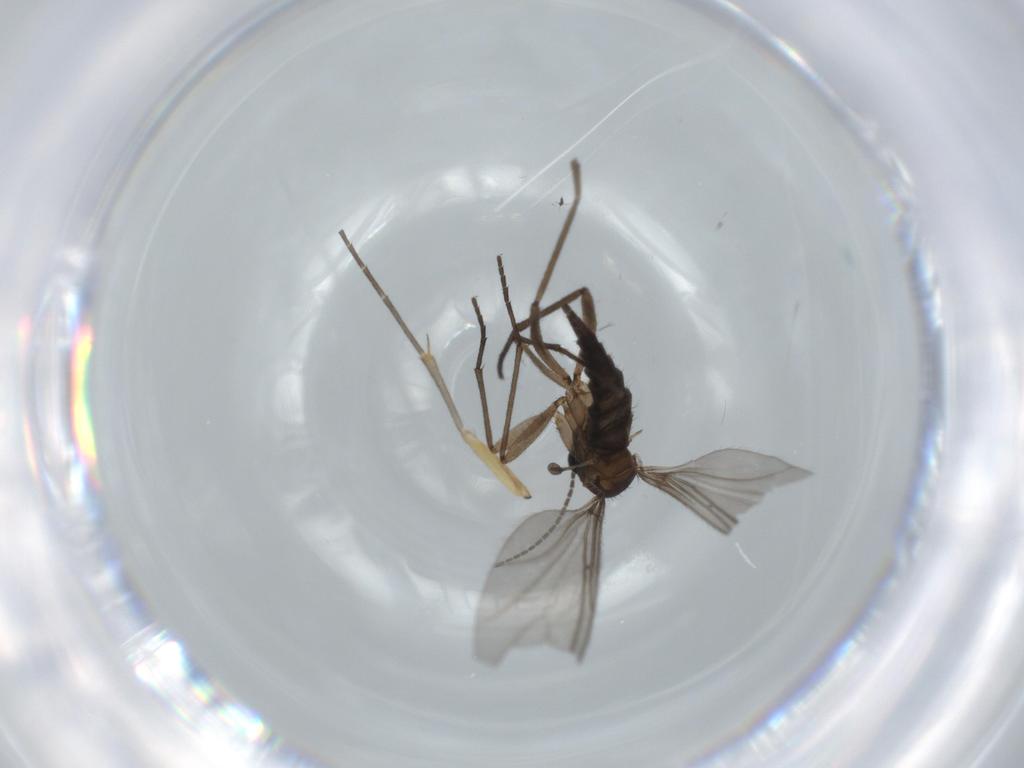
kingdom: Animalia
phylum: Arthropoda
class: Insecta
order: Diptera
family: Sciaridae
